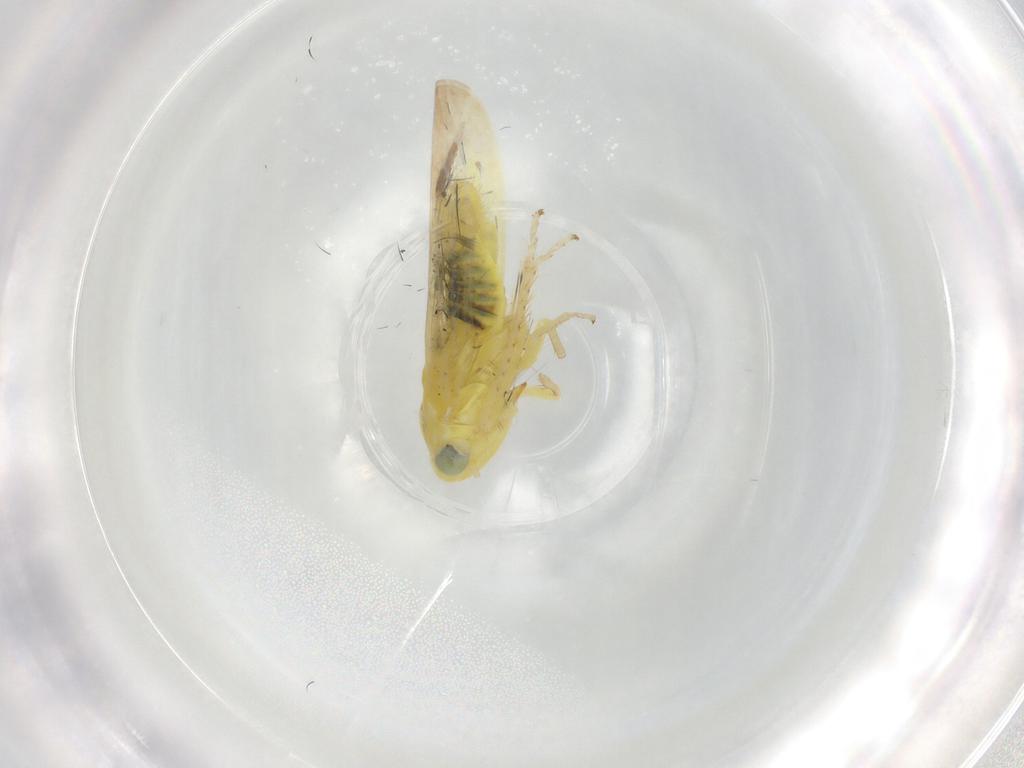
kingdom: Animalia
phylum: Arthropoda
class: Insecta
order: Hemiptera
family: Cicadellidae
